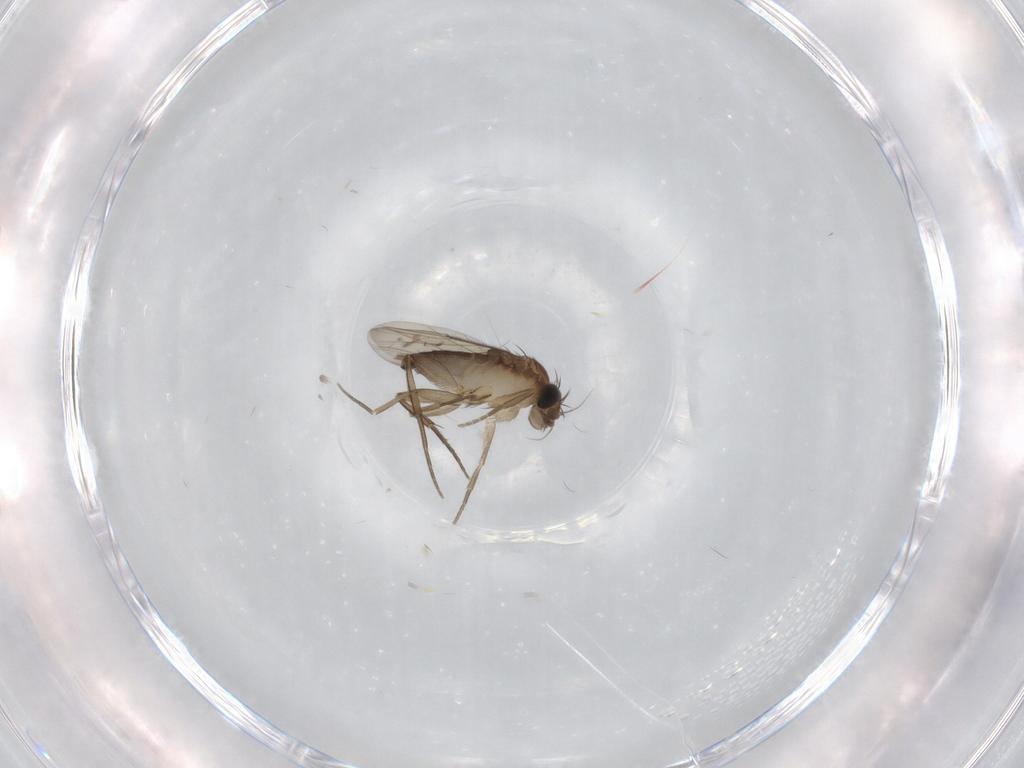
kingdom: Animalia
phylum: Arthropoda
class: Insecta
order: Diptera
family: Phoridae
